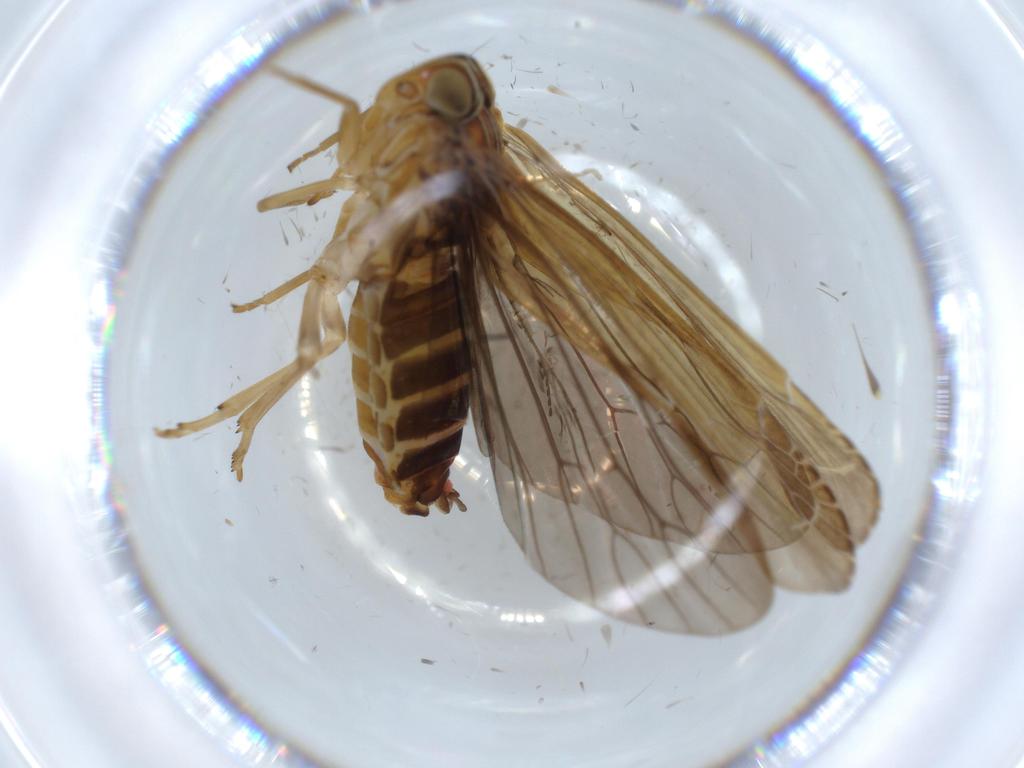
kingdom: Animalia
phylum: Arthropoda
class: Insecta
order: Hemiptera
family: Achilidae
